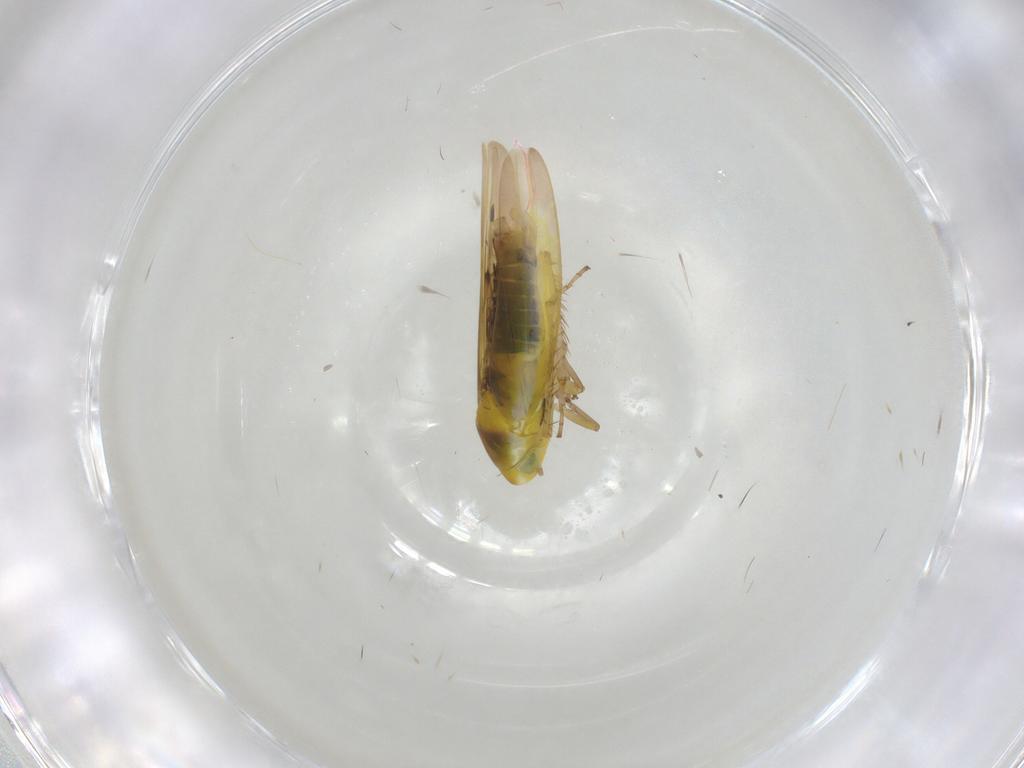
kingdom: Animalia
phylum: Arthropoda
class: Insecta
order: Hemiptera
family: Cicadellidae
